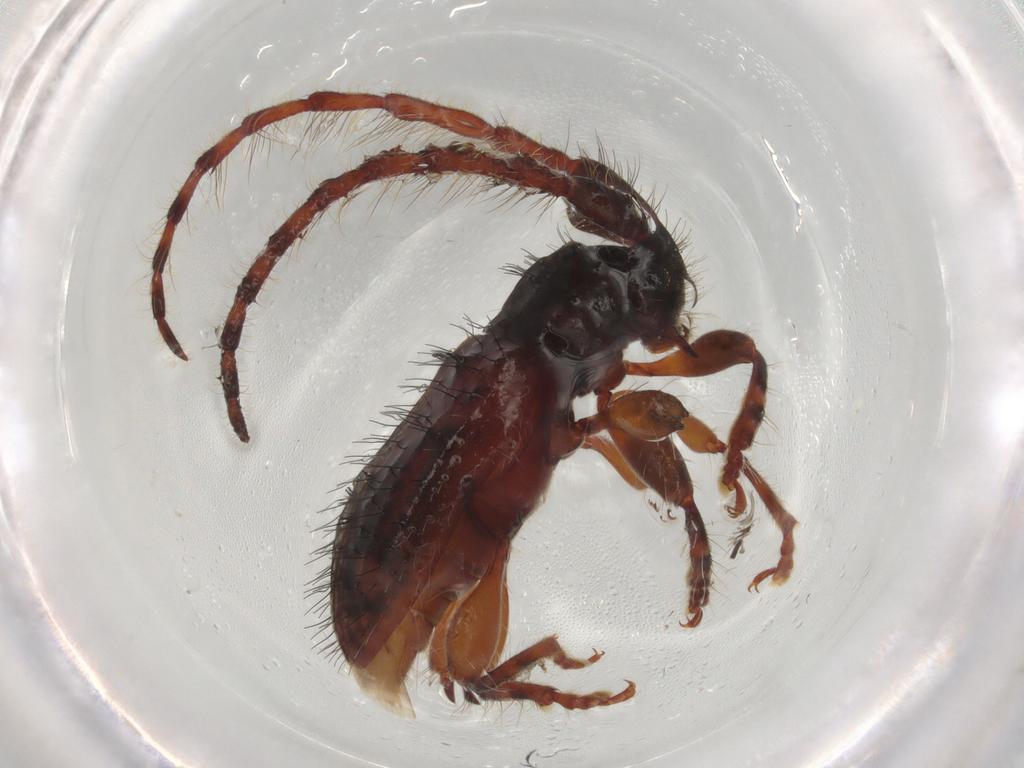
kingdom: Animalia
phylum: Arthropoda
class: Insecta
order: Coleoptera
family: Cerambycidae
